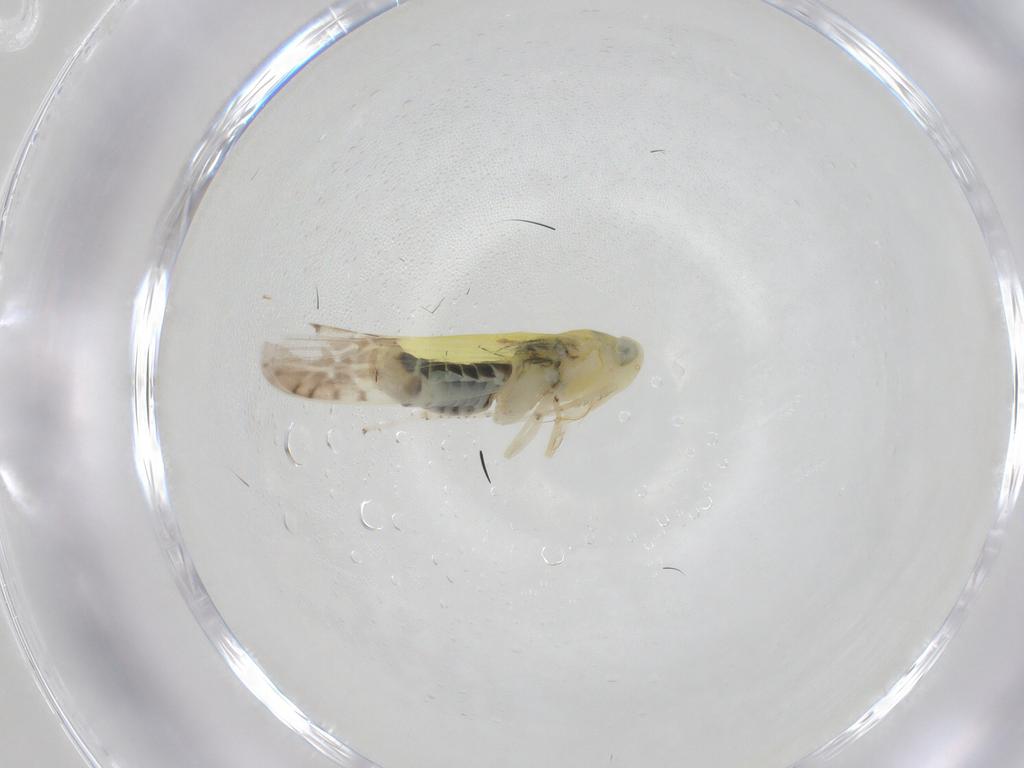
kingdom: Animalia
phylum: Arthropoda
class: Insecta
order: Hemiptera
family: Cicadellidae
